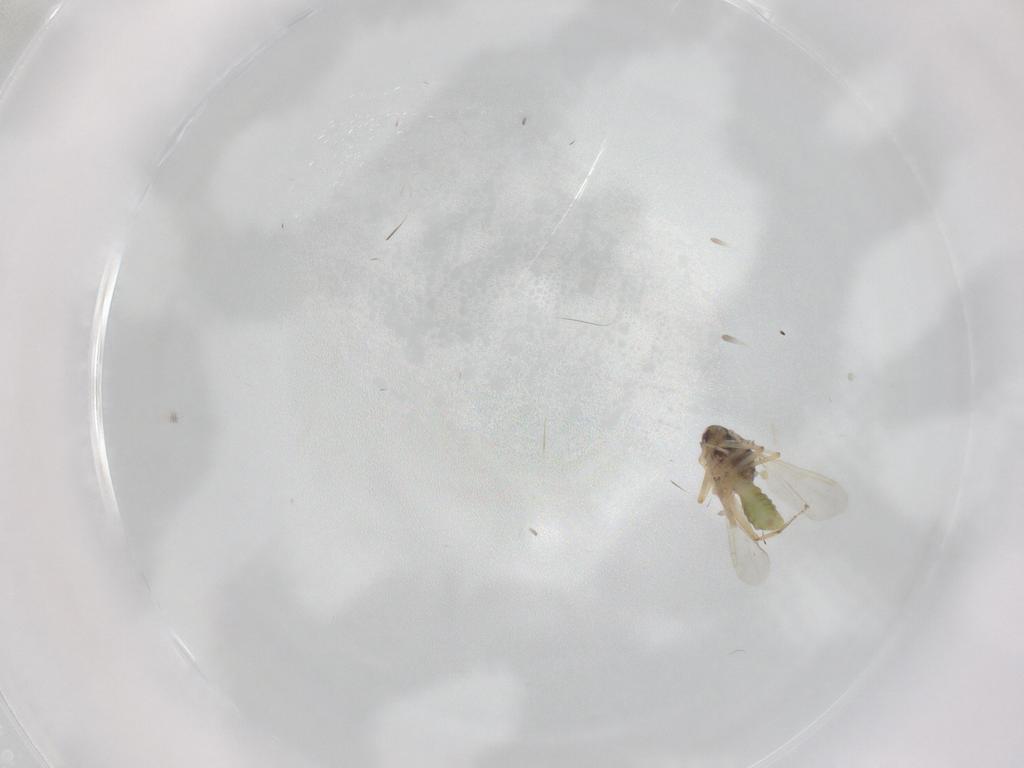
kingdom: Animalia
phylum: Arthropoda
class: Insecta
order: Diptera
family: Ceratopogonidae
